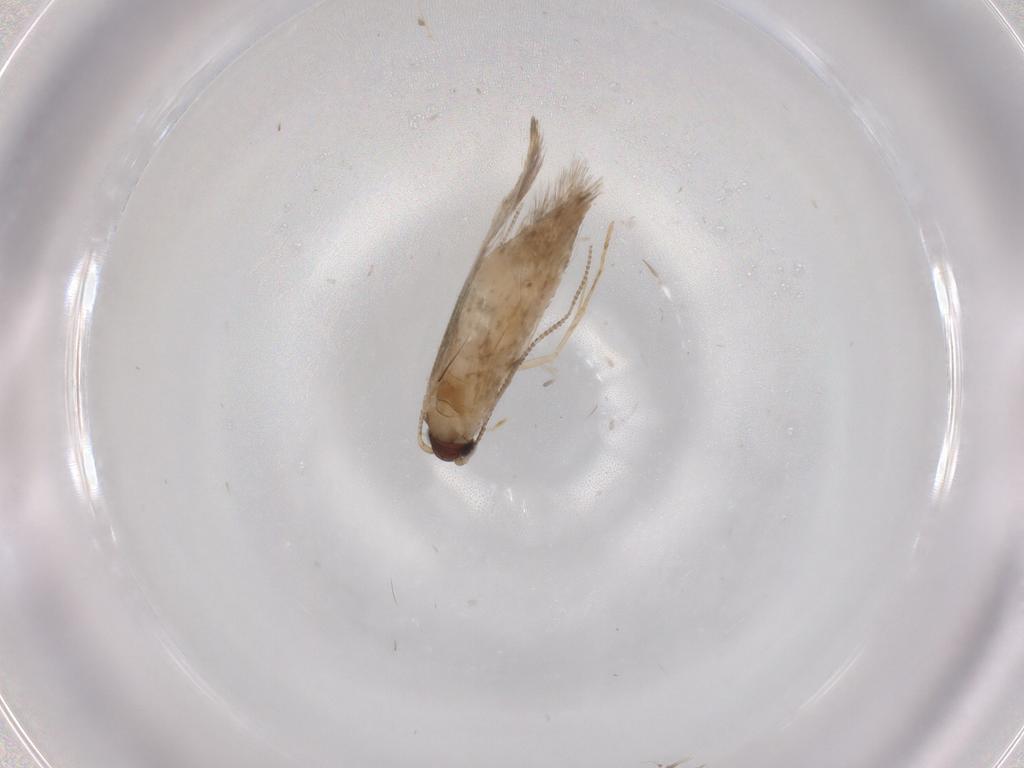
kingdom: Animalia
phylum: Arthropoda
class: Insecta
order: Lepidoptera
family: Tineidae
